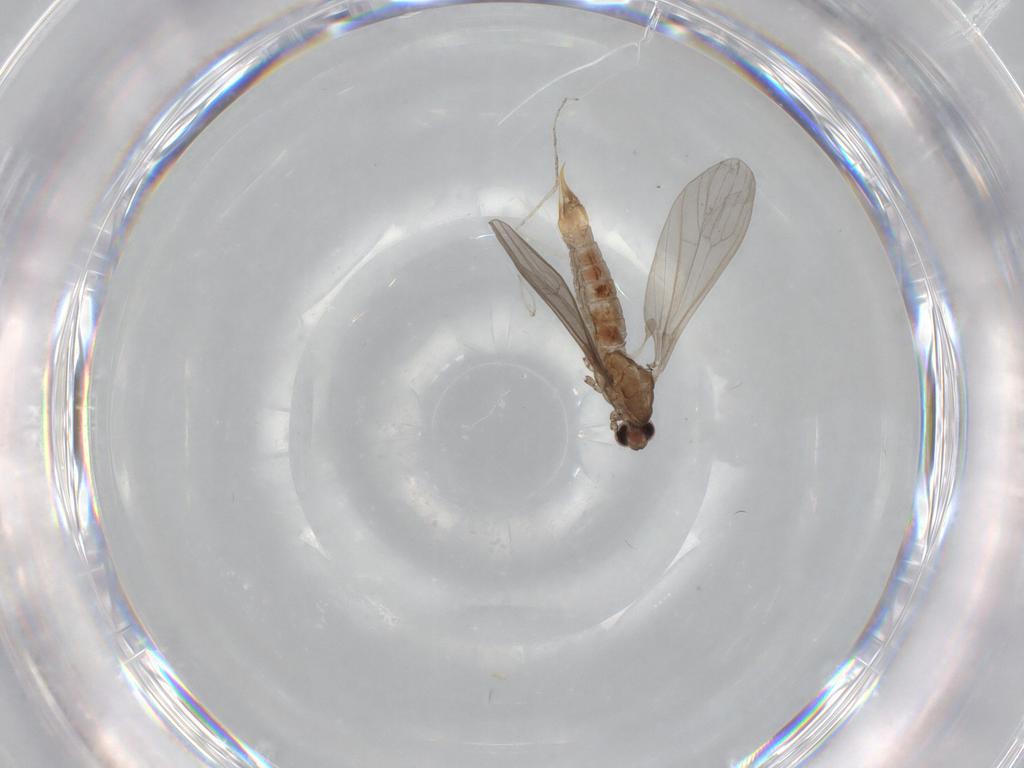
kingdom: Animalia
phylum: Arthropoda
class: Insecta
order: Diptera
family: Limoniidae
